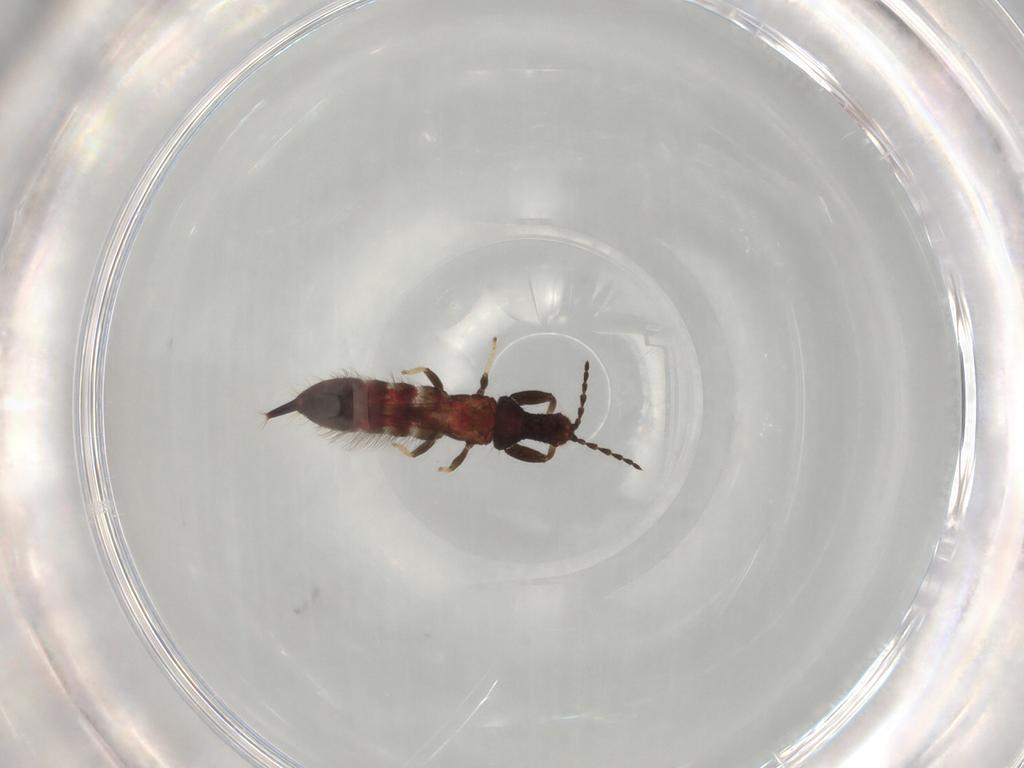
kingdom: Animalia
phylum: Arthropoda
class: Insecta
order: Thysanoptera
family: Phlaeothripidae
